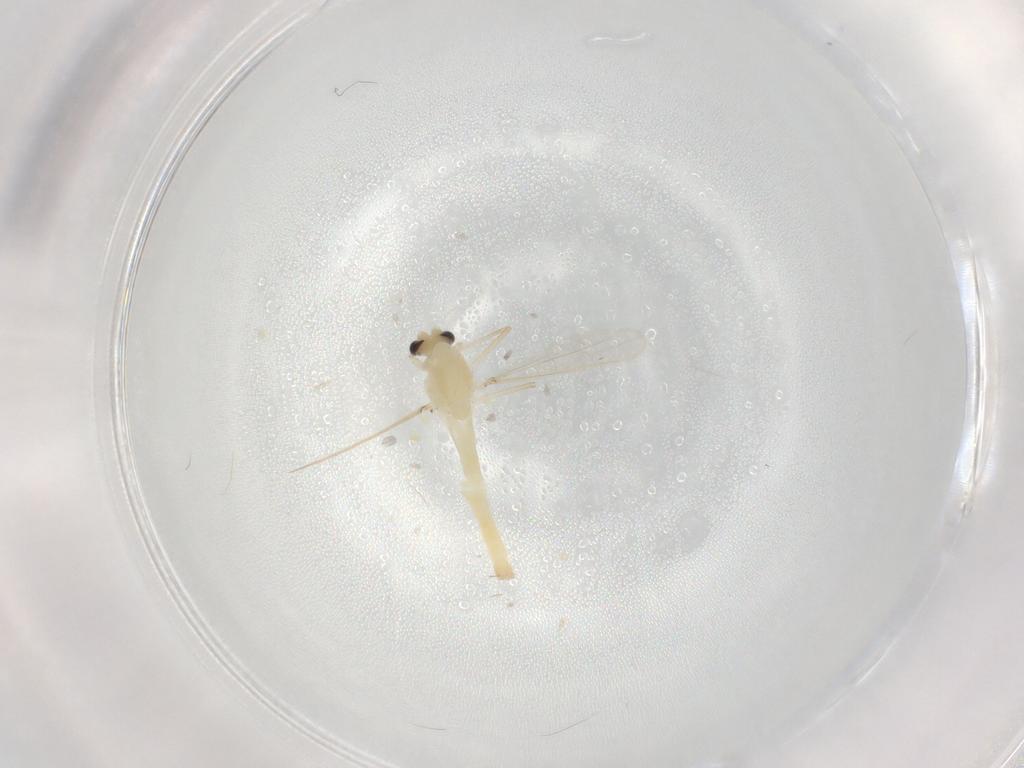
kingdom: Animalia
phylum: Arthropoda
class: Insecta
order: Diptera
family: Chironomidae
